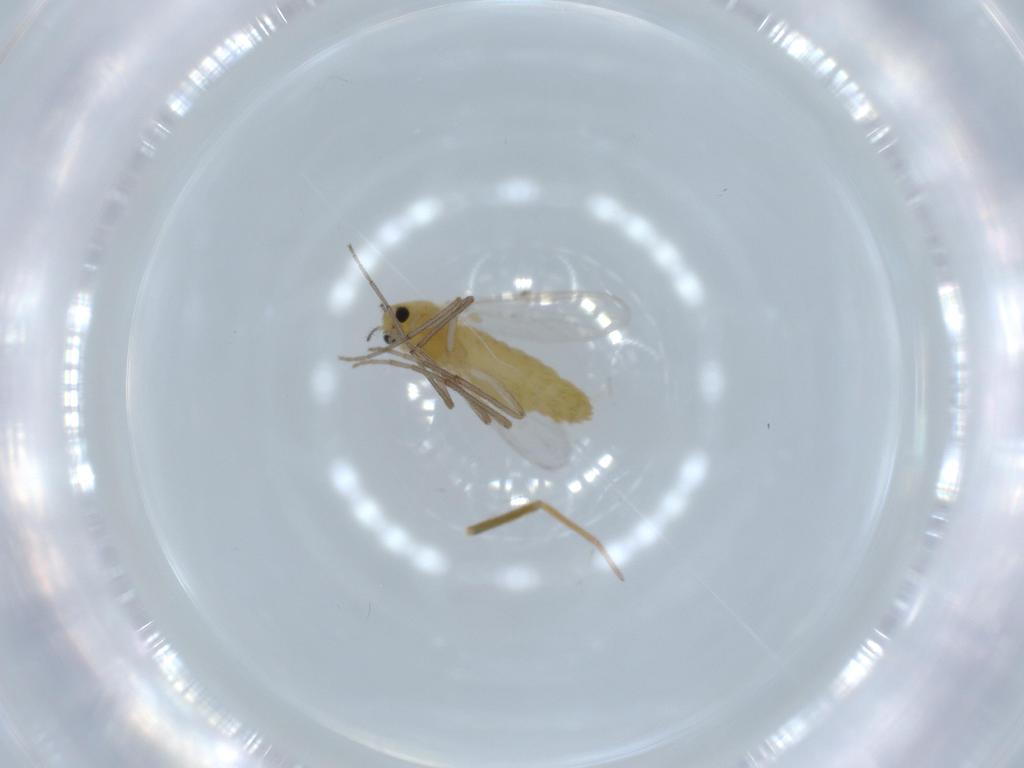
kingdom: Animalia
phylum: Arthropoda
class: Insecta
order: Diptera
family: Chironomidae
